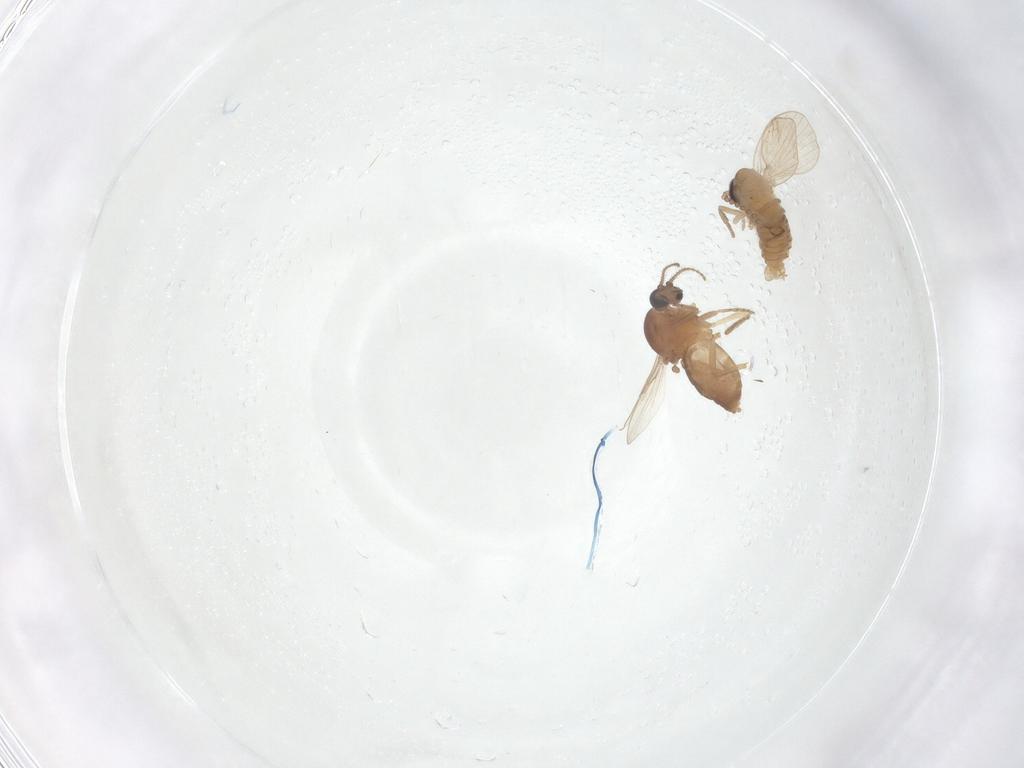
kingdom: Animalia
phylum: Arthropoda
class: Insecta
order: Diptera
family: Ceratopogonidae
